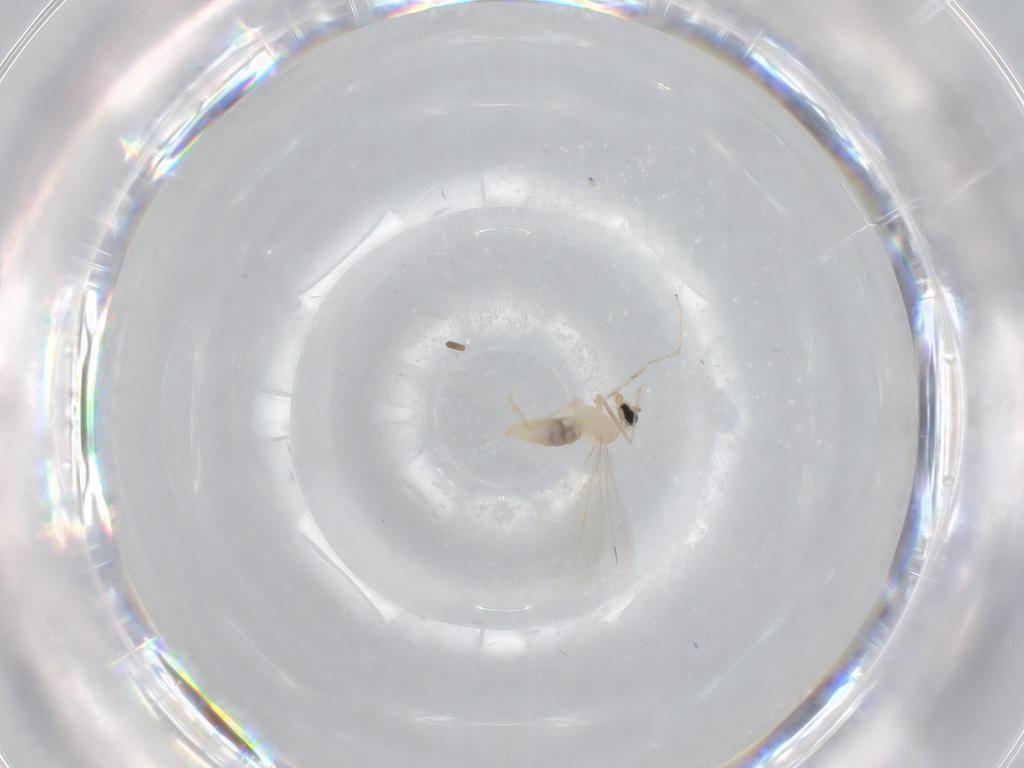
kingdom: Animalia
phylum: Arthropoda
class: Insecta
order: Diptera
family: Cecidomyiidae
